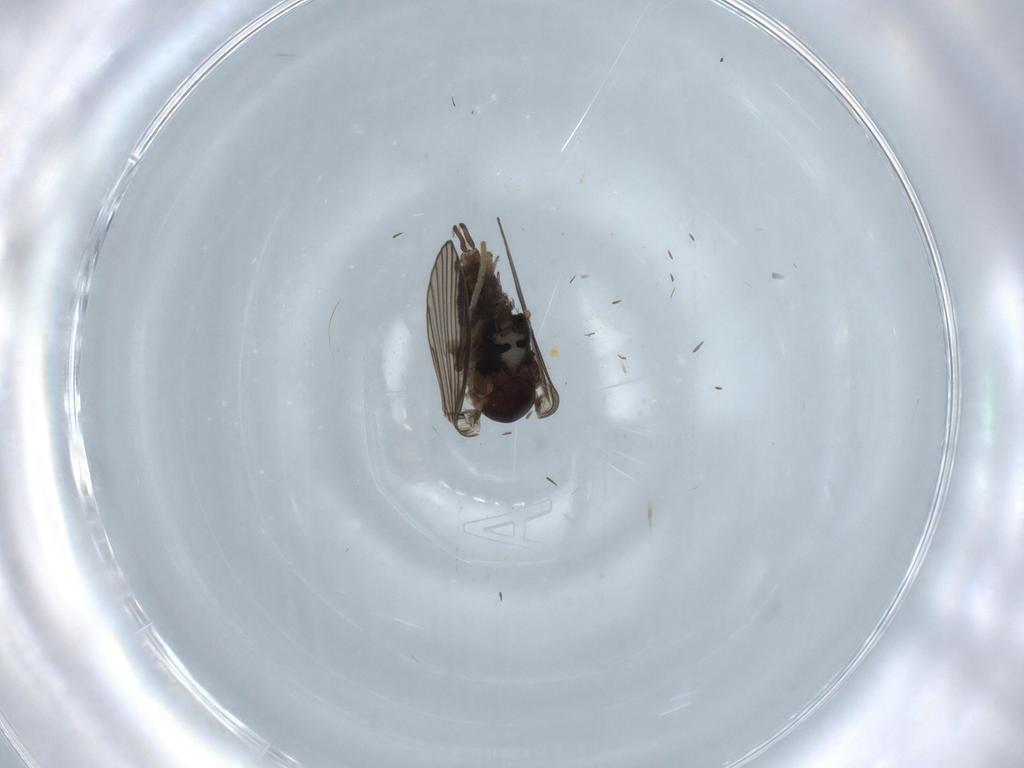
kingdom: Animalia
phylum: Arthropoda
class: Insecta
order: Diptera
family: Psychodidae
